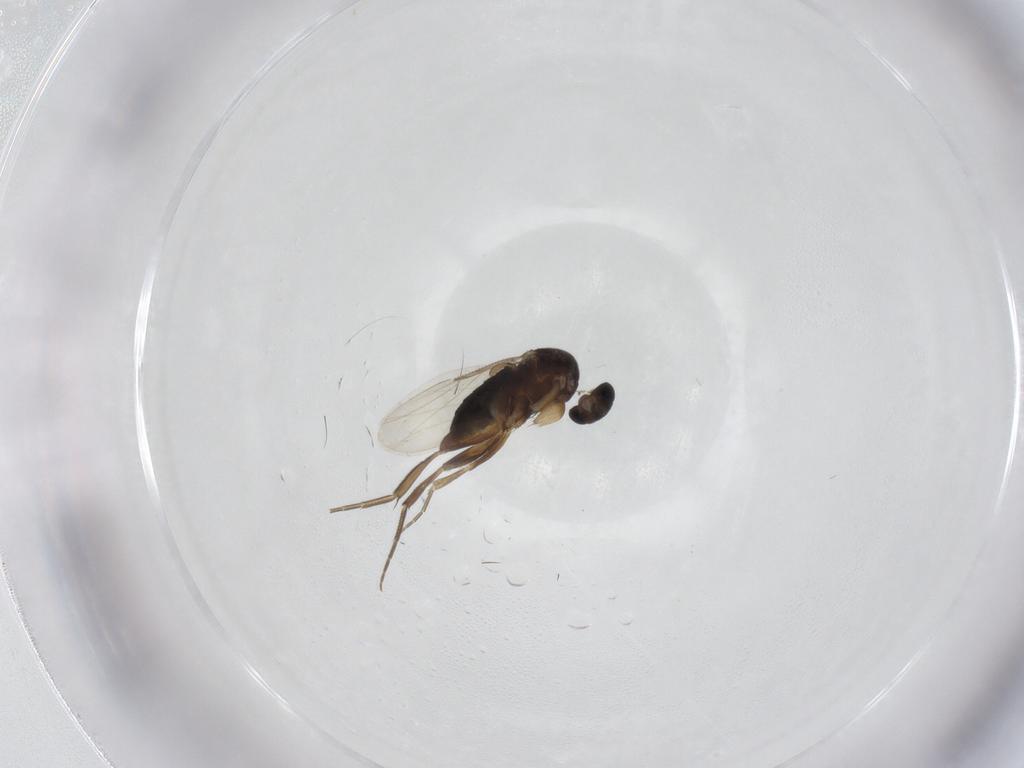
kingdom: Animalia
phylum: Arthropoda
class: Insecta
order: Diptera
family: Phoridae
